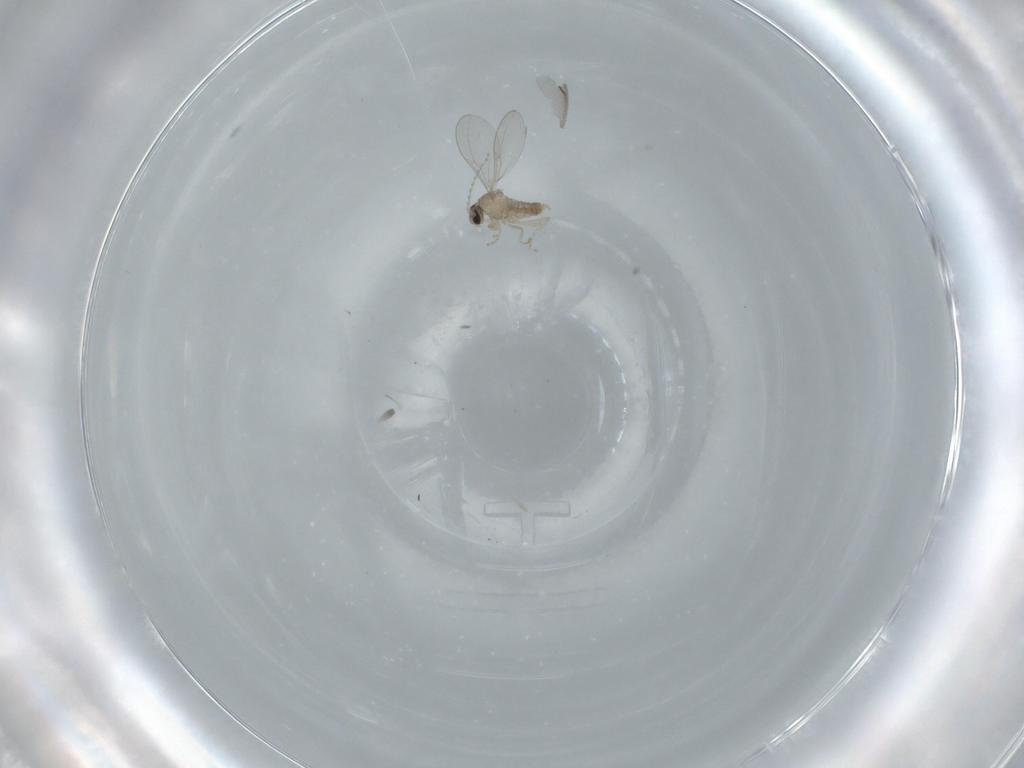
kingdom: Animalia
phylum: Arthropoda
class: Insecta
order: Diptera
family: Cecidomyiidae
